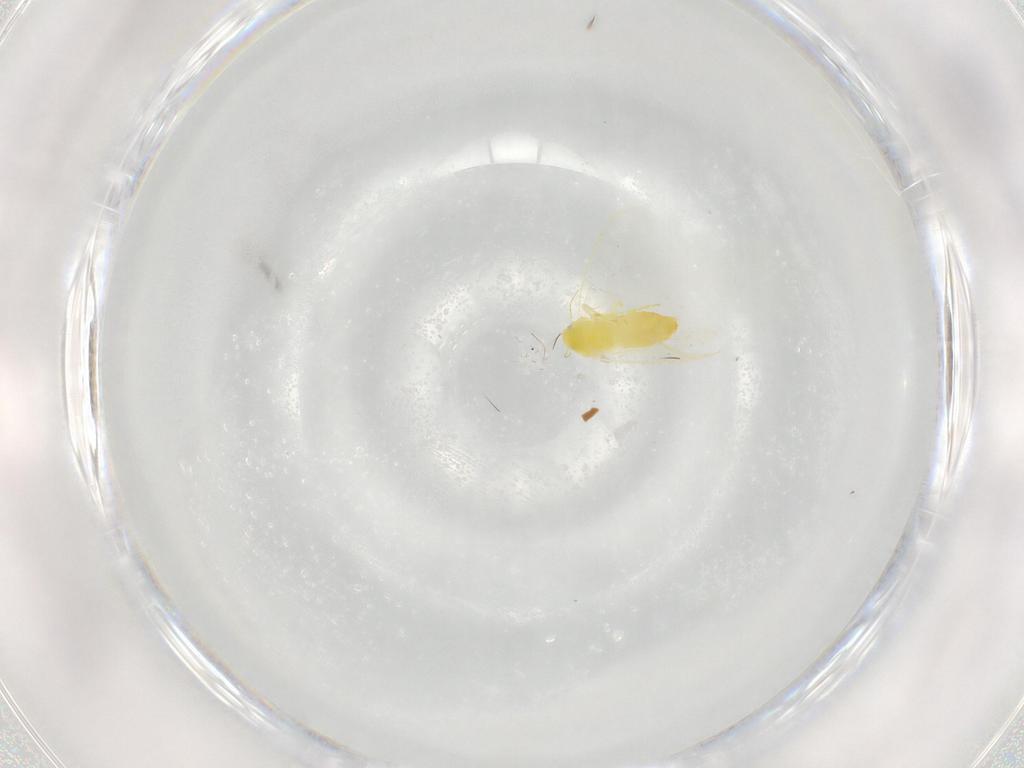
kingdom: Animalia
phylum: Arthropoda
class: Insecta
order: Hemiptera
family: Aleyrodidae
